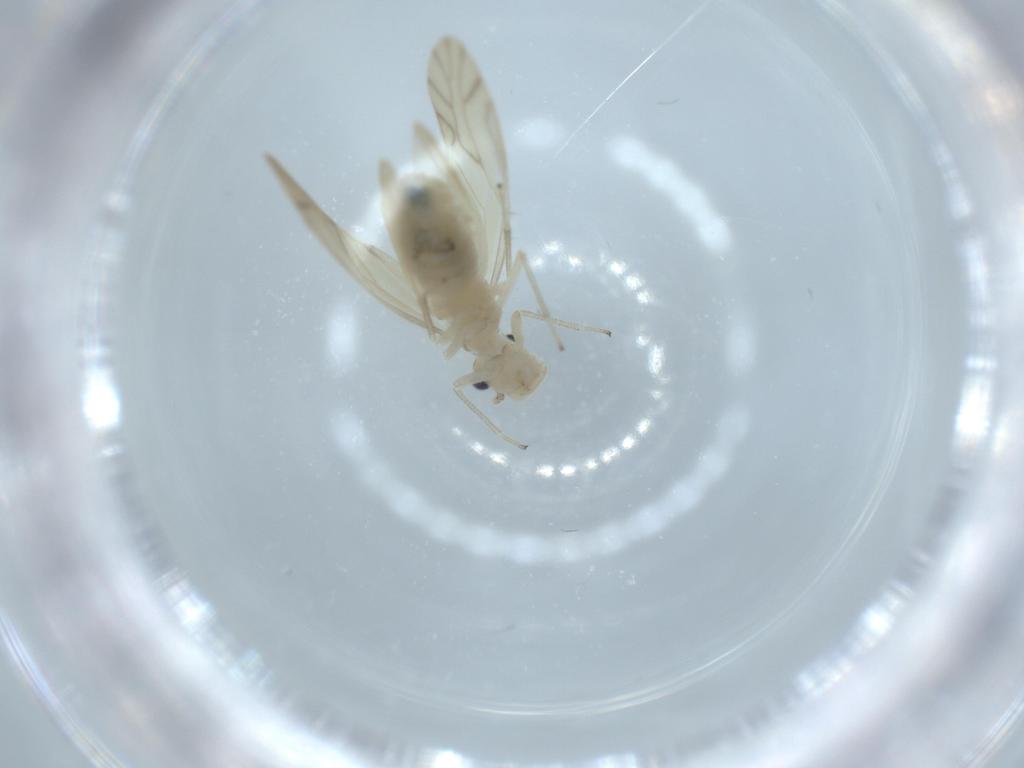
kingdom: Animalia
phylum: Arthropoda
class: Insecta
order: Psocodea
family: Caeciliusidae
